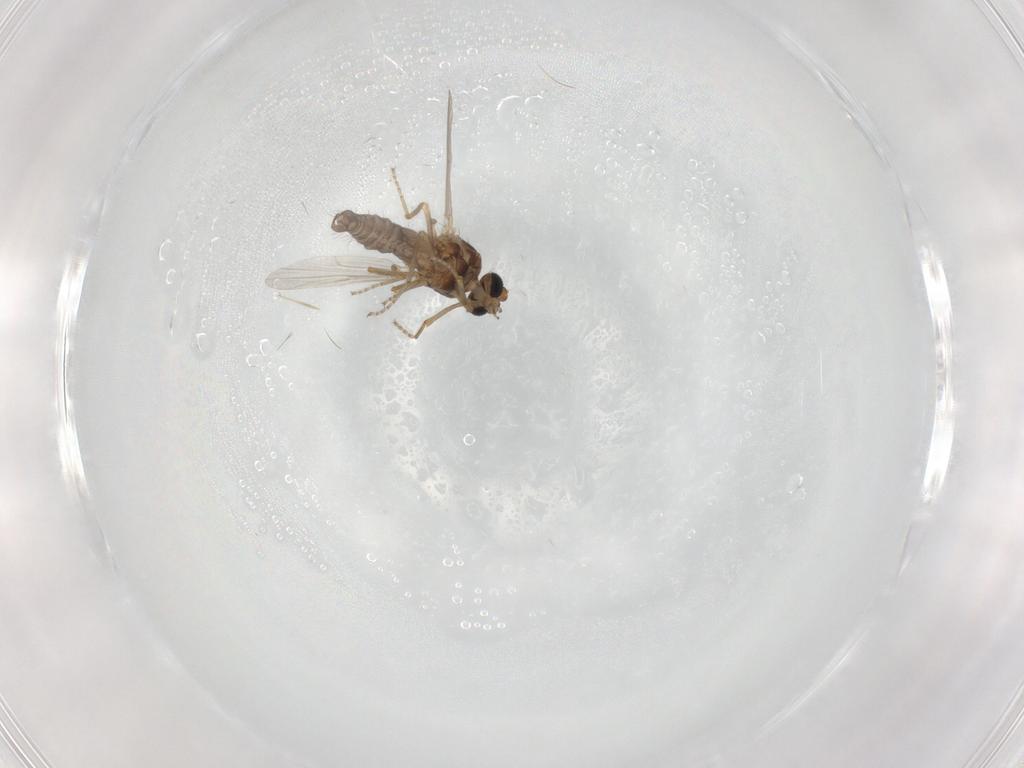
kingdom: Animalia
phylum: Arthropoda
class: Insecta
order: Diptera
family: Ceratopogonidae
